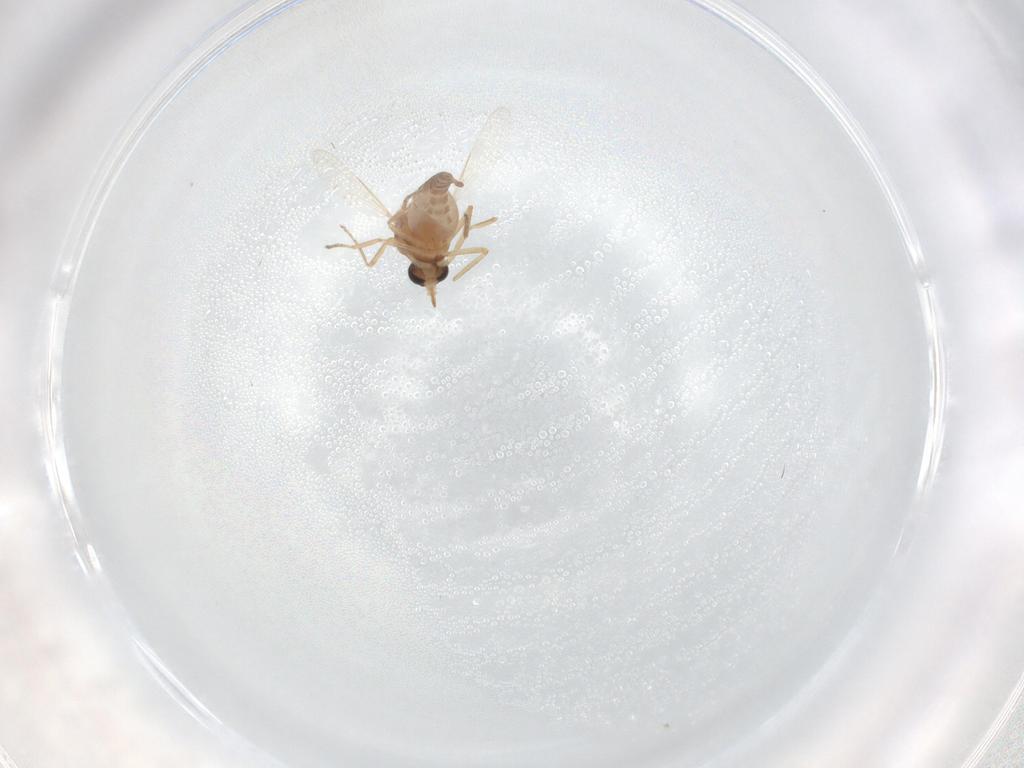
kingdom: Animalia
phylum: Arthropoda
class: Insecta
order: Diptera
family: Ceratopogonidae
